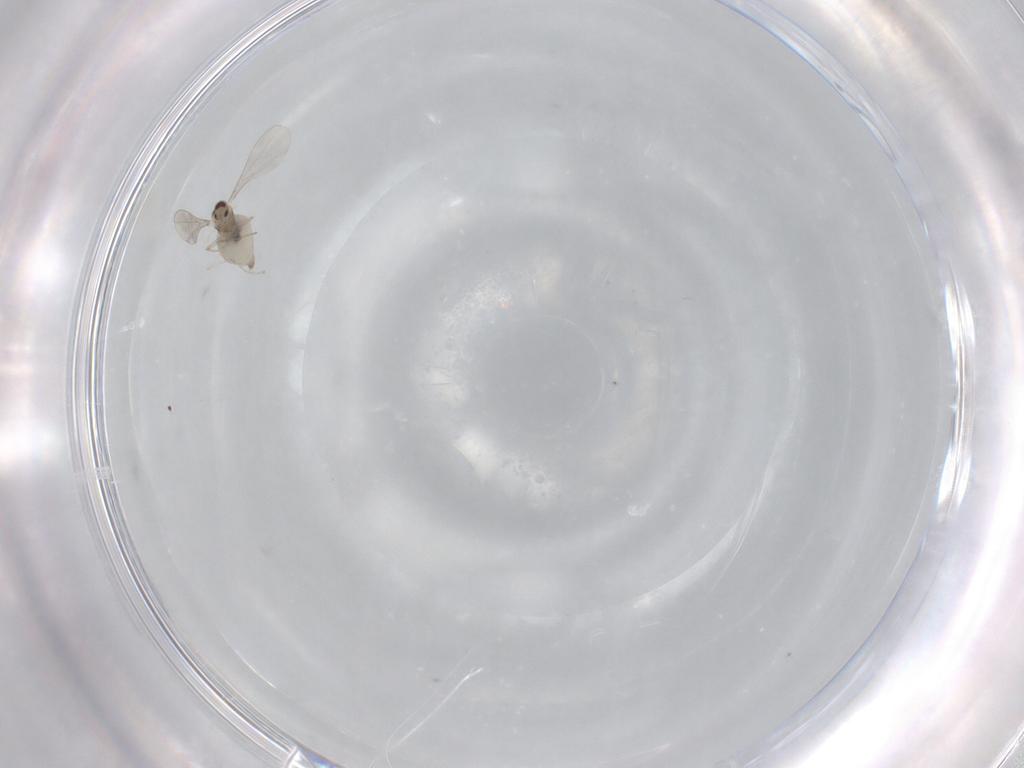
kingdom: Animalia
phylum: Arthropoda
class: Insecta
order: Diptera
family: Cecidomyiidae
